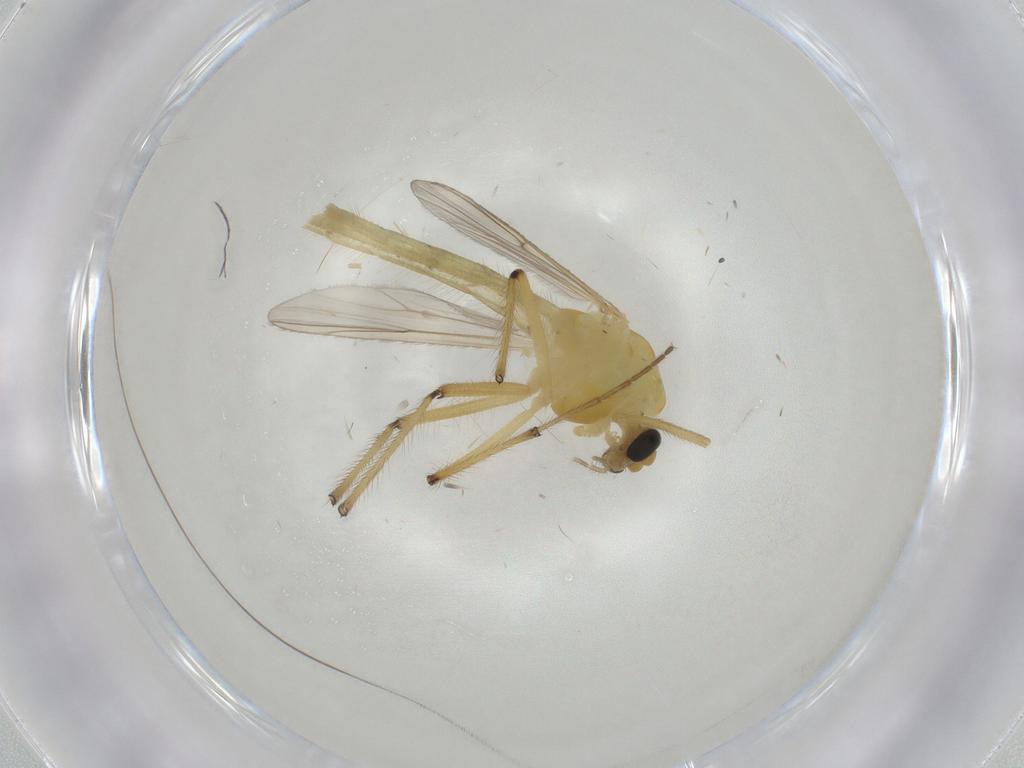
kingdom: Animalia
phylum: Arthropoda
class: Insecta
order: Diptera
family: Chironomidae
